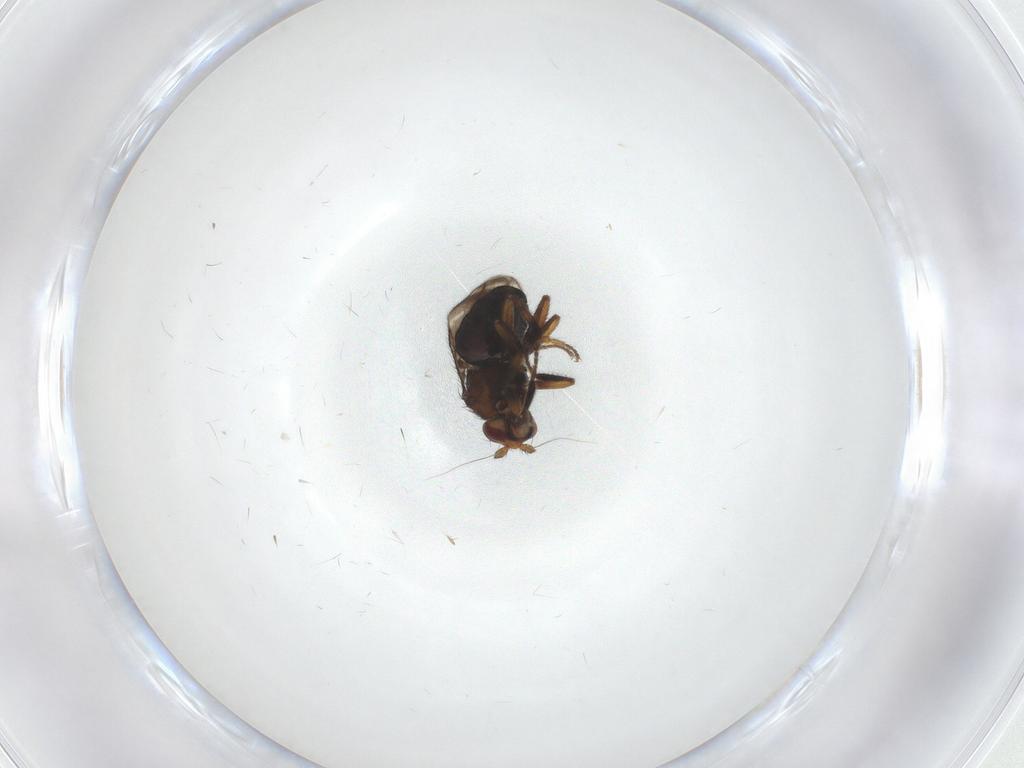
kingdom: Animalia
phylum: Arthropoda
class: Insecta
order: Diptera
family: Sphaeroceridae
